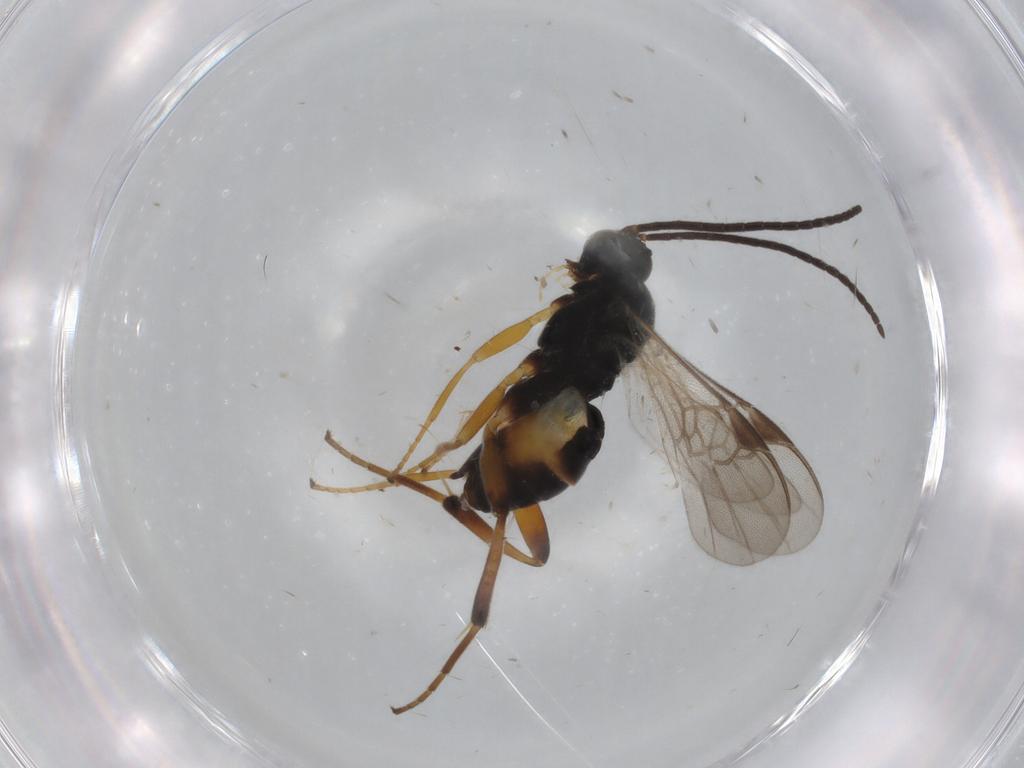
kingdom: Animalia
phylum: Arthropoda
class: Insecta
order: Hymenoptera
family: Braconidae
